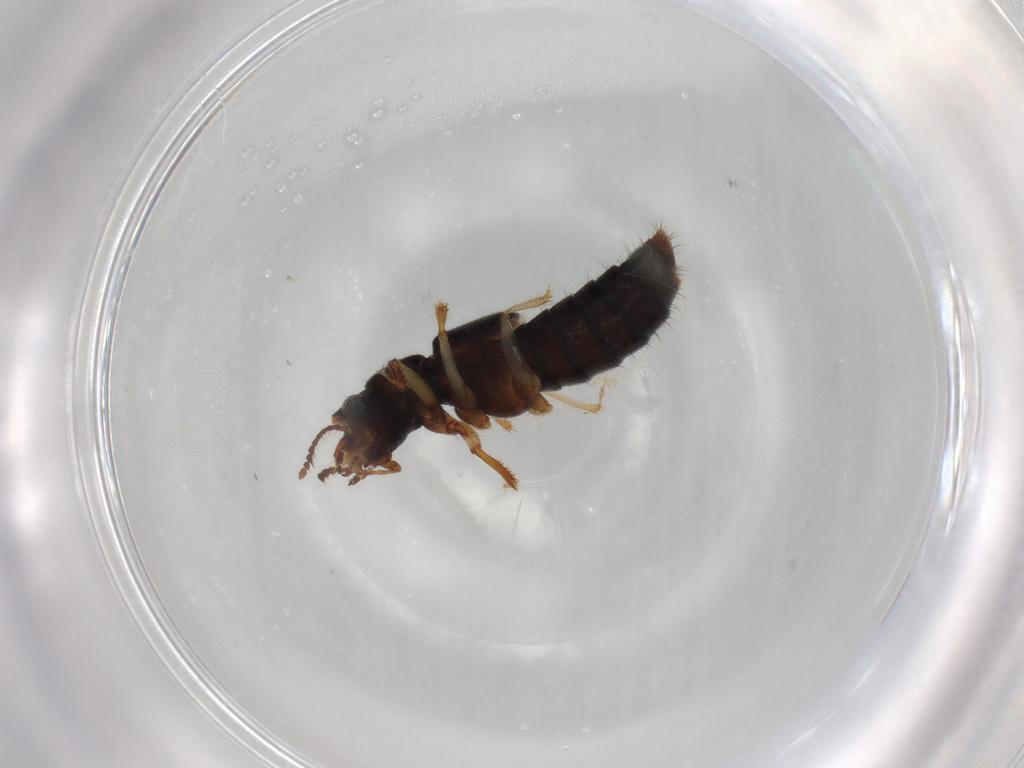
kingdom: Animalia
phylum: Arthropoda
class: Insecta
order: Coleoptera
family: Staphylinidae
